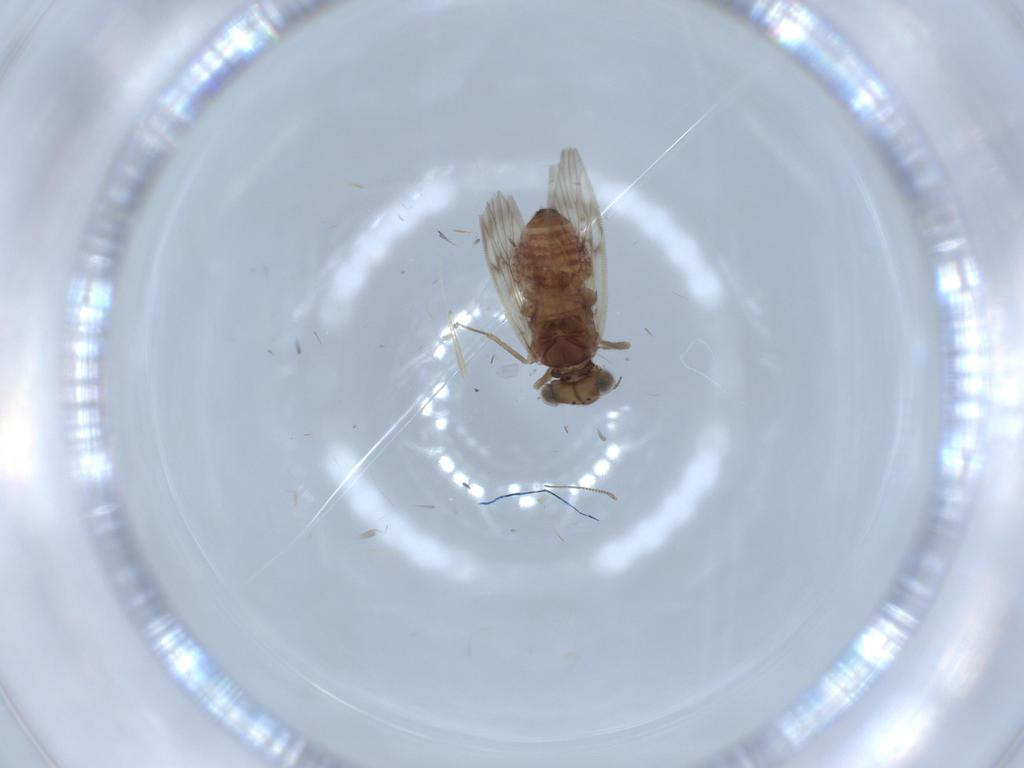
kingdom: Animalia
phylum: Arthropoda
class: Insecta
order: Psocodea
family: Lepidopsocidae
